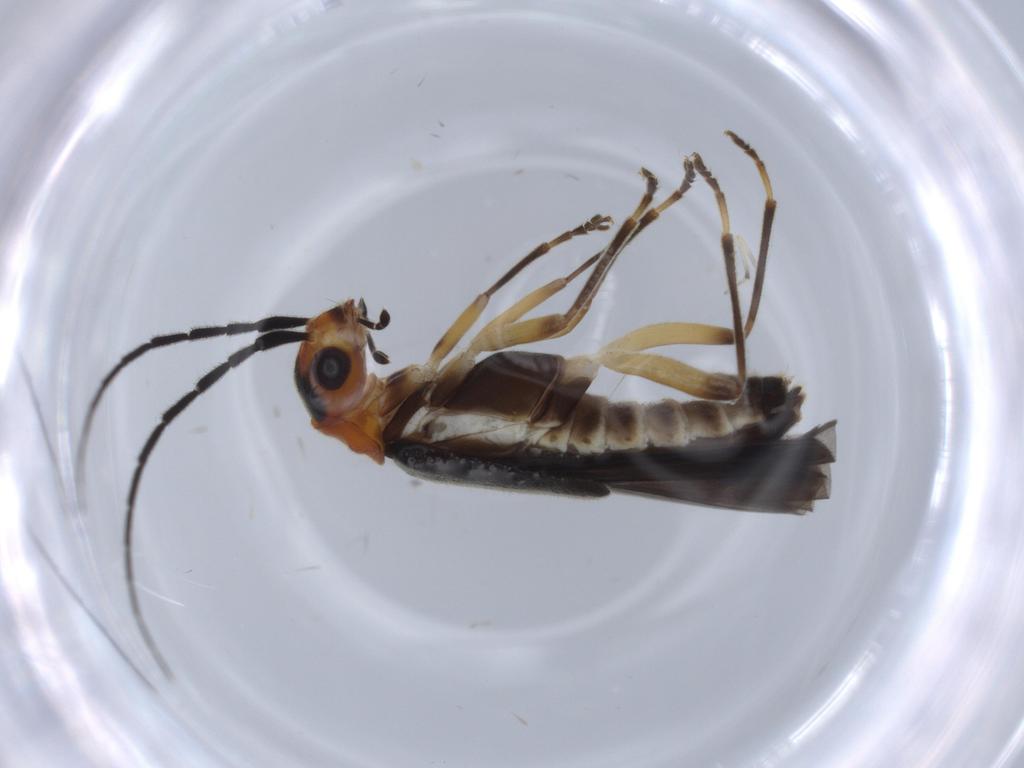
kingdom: Animalia
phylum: Arthropoda
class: Insecta
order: Coleoptera
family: Cantharidae
